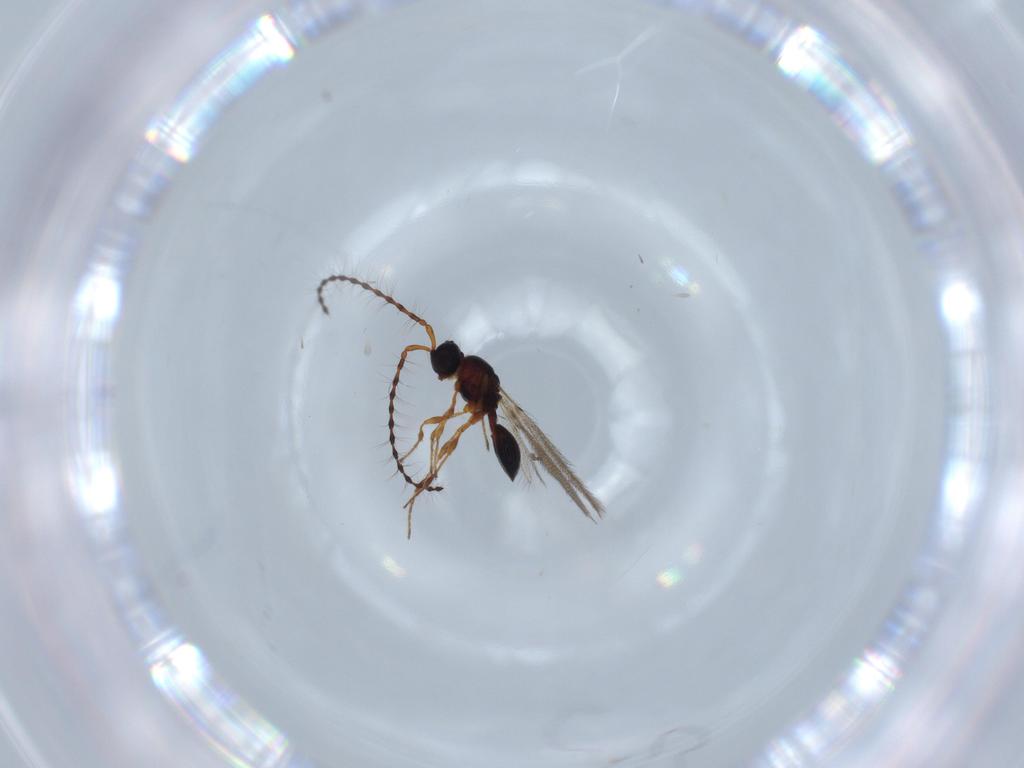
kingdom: Animalia
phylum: Arthropoda
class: Insecta
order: Hymenoptera
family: Diapriidae
